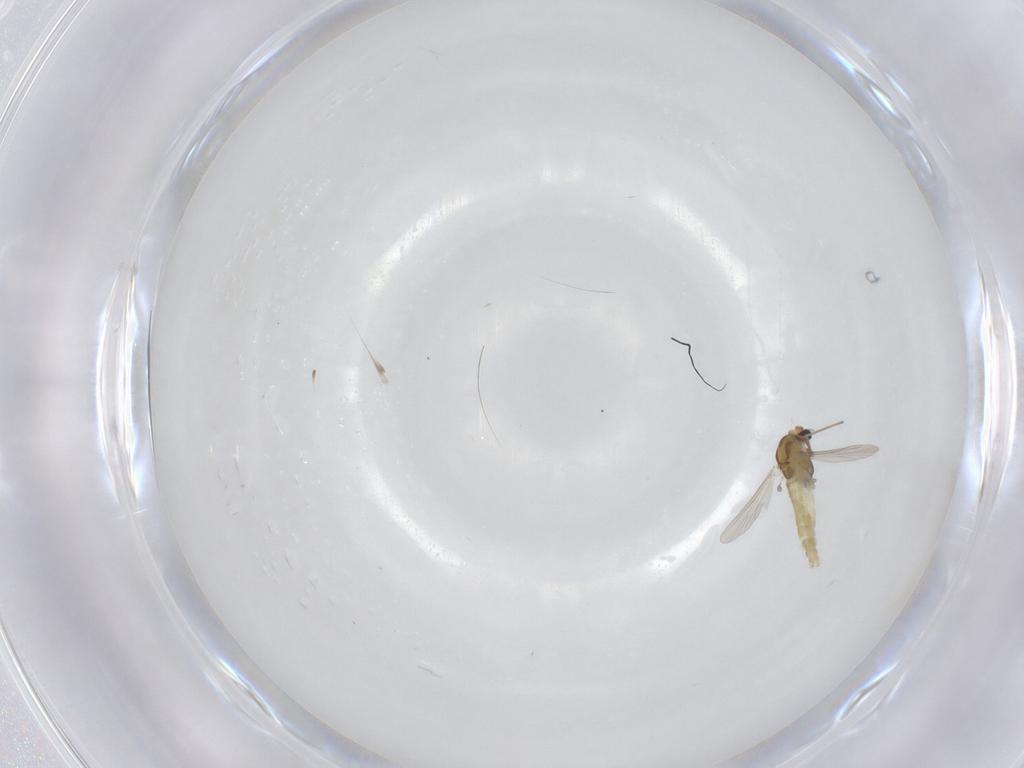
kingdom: Animalia
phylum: Arthropoda
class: Insecta
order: Diptera
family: Chironomidae
